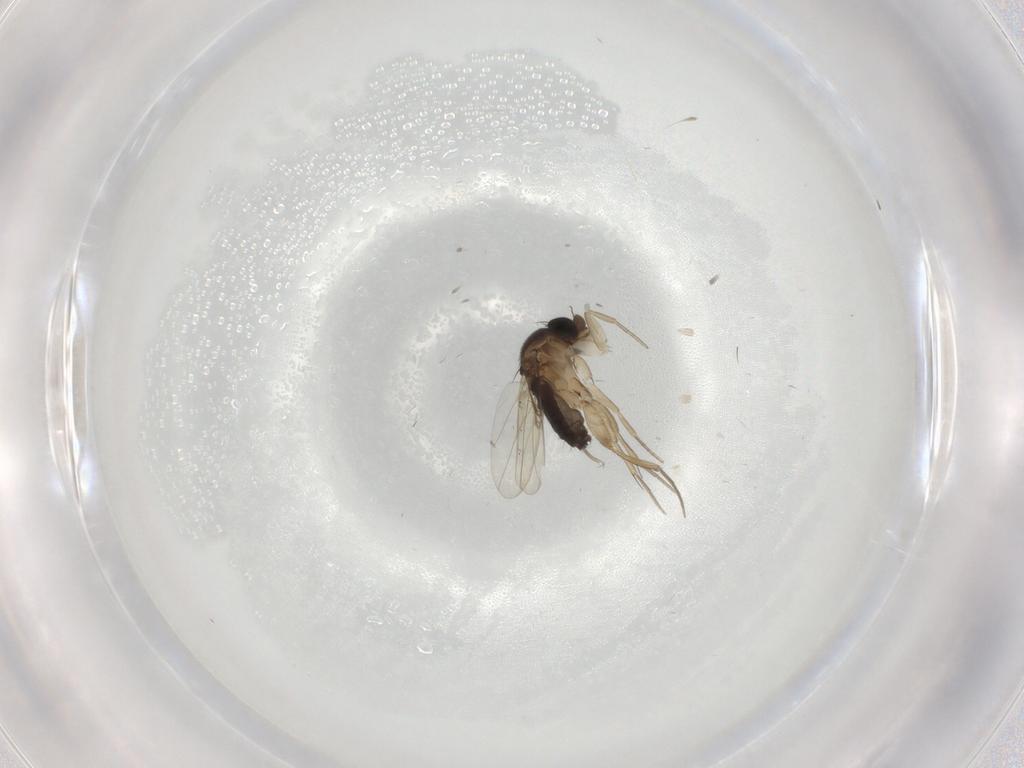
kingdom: Animalia
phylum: Arthropoda
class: Insecta
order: Diptera
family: Phoridae
